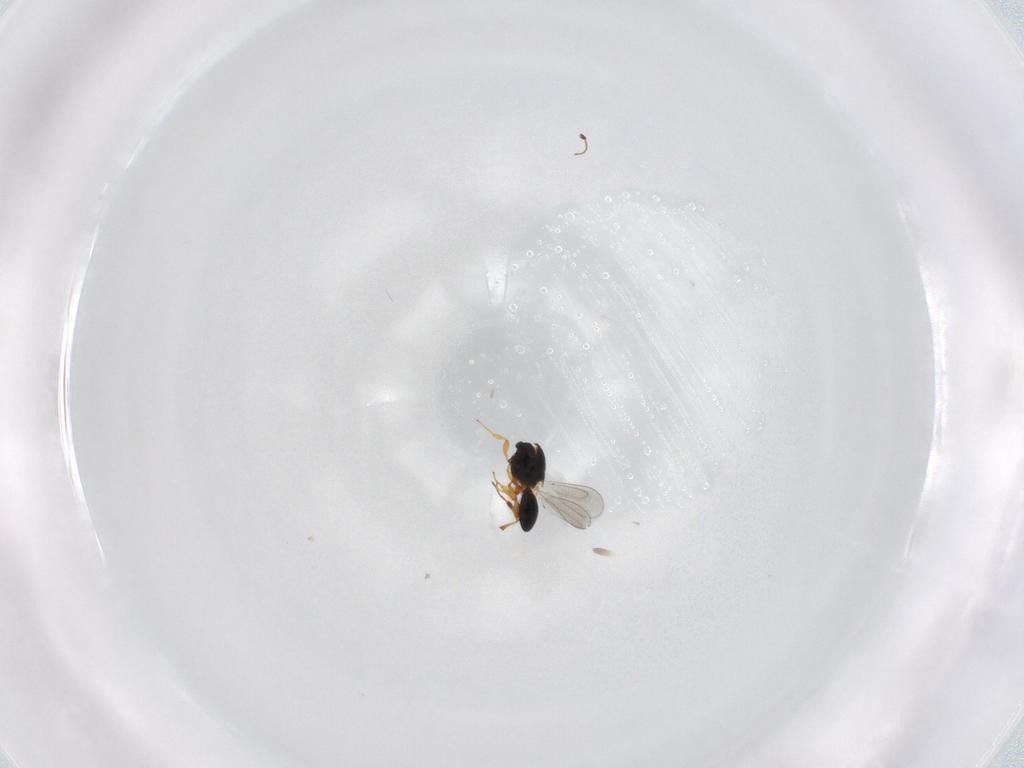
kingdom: Animalia
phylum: Arthropoda
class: Insecta
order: Hymenoptera
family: Platygastridae
